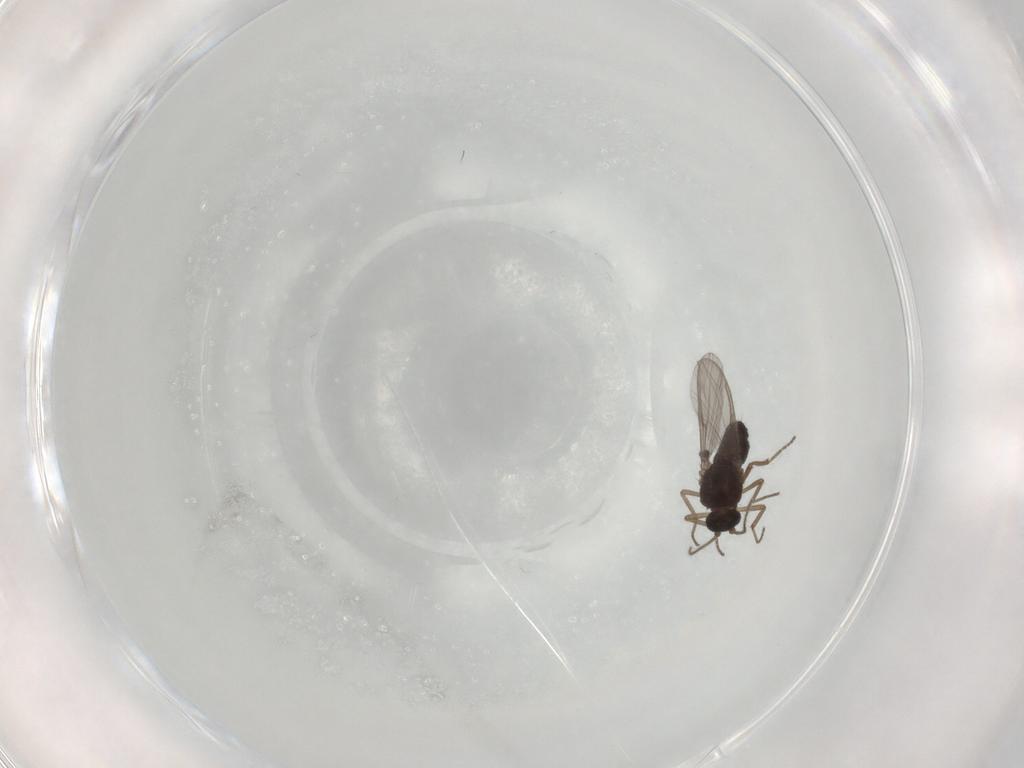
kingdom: Animalia
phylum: Arthropoda
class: Insecta
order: Diptera
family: Ceratopogonidae
